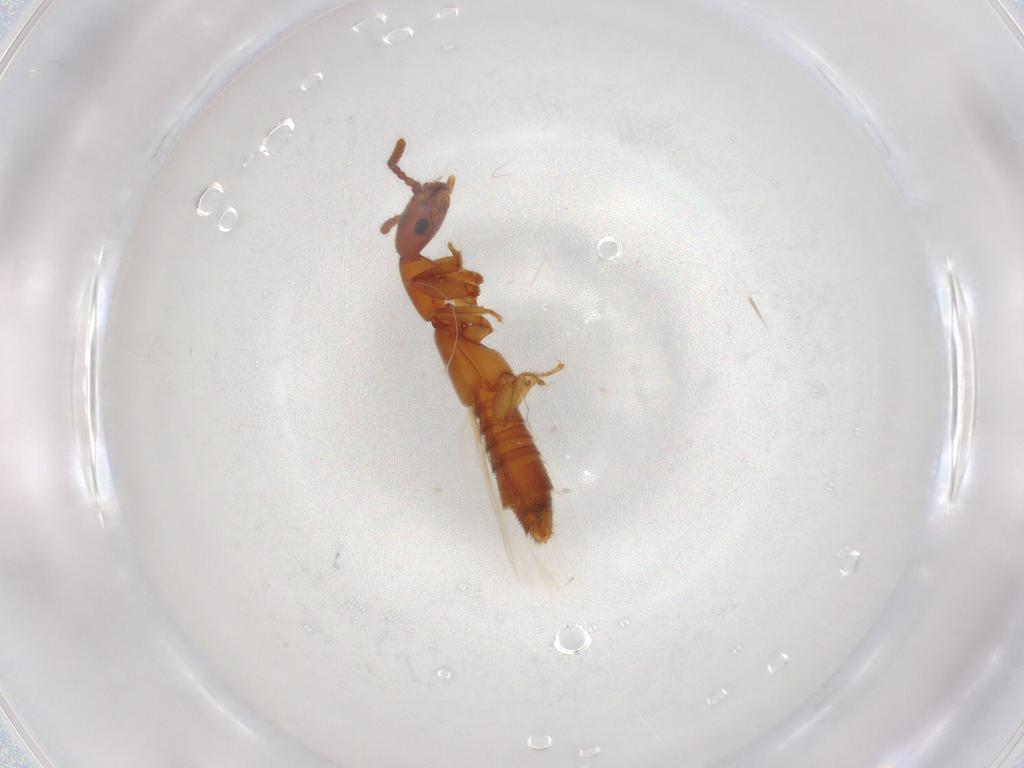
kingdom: Animalia
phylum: Arthropoda
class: Insecta
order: Coleoptera
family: Staphylinidae
